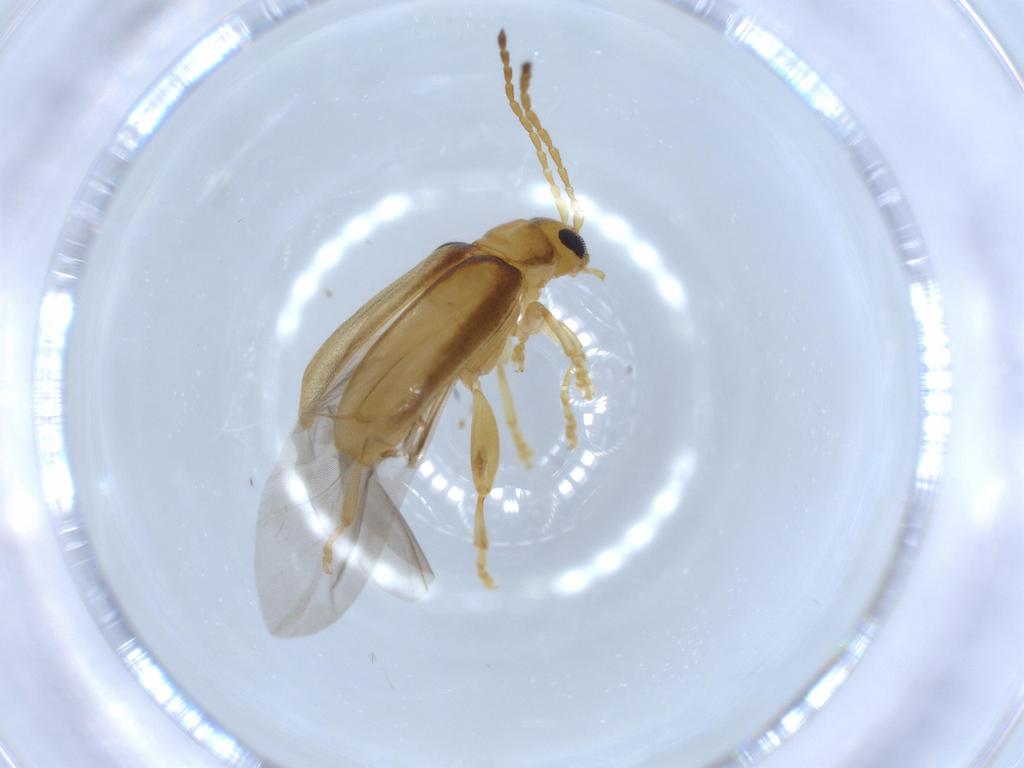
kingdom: Animalia
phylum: Arthropoda
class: Insecta
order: Coleoptera
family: Chrysomelidae
